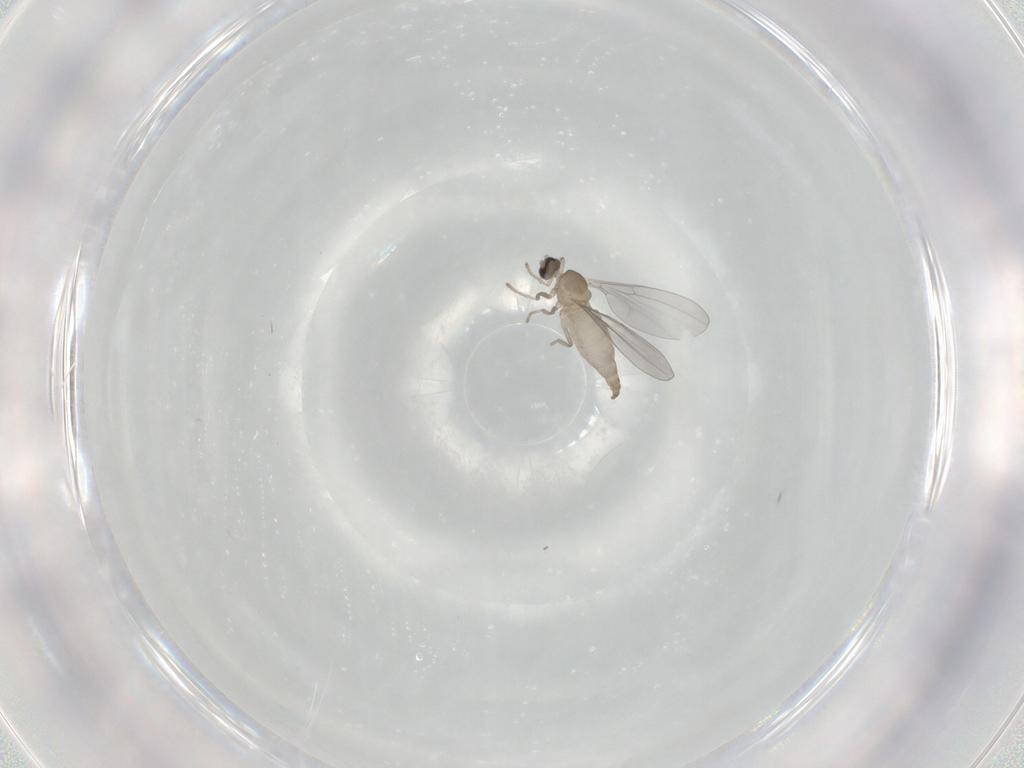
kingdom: Animalia
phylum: Arthropoda
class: Insecta
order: Diptera
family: Cecidomyiidae
